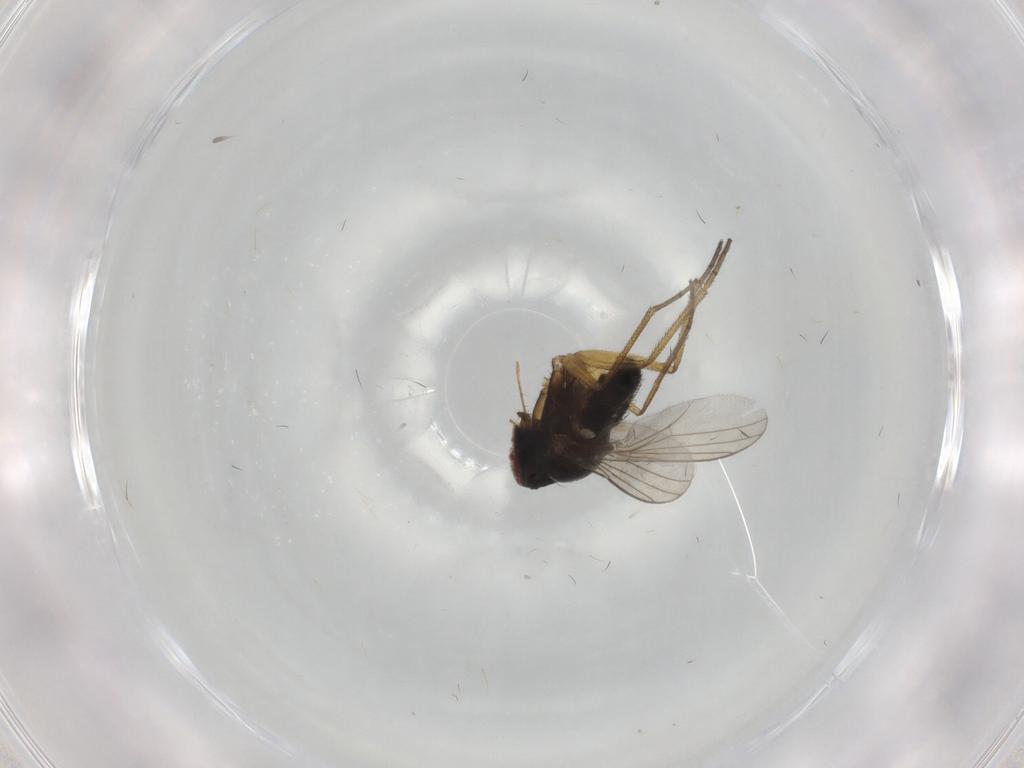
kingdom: Animalia
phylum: Arthropoda
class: Insecta
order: Diptera
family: Dolichopodidae
